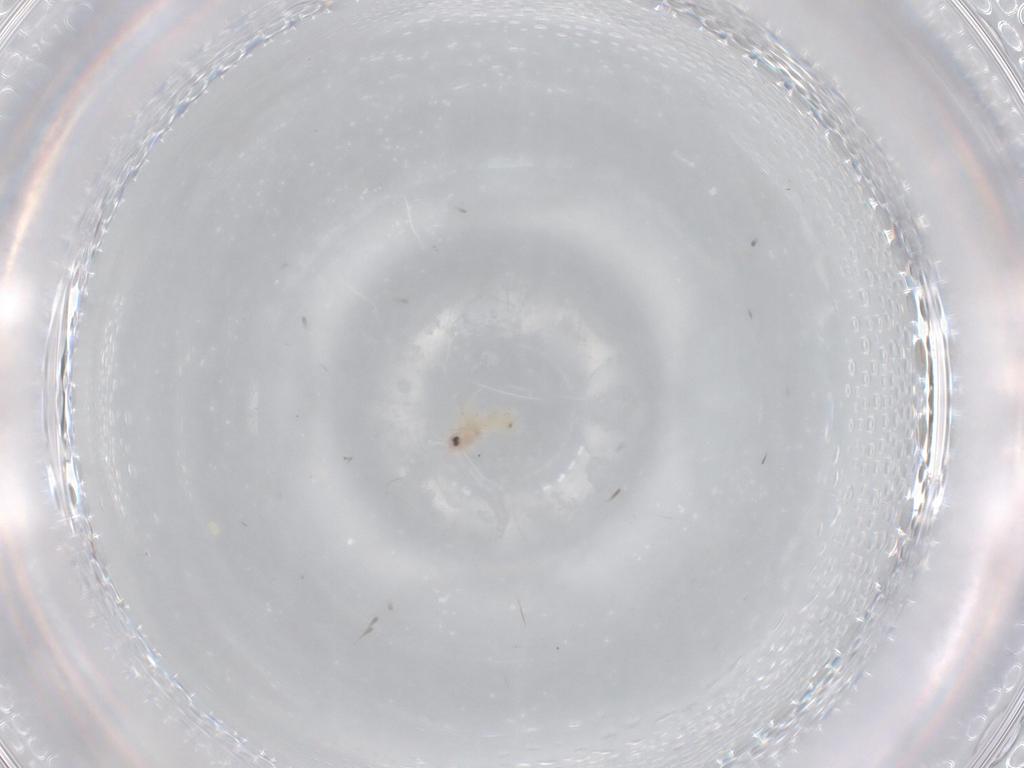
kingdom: Animalia
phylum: Arthropoda
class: Insecta
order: Hemiptera
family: Aleyrodidae
